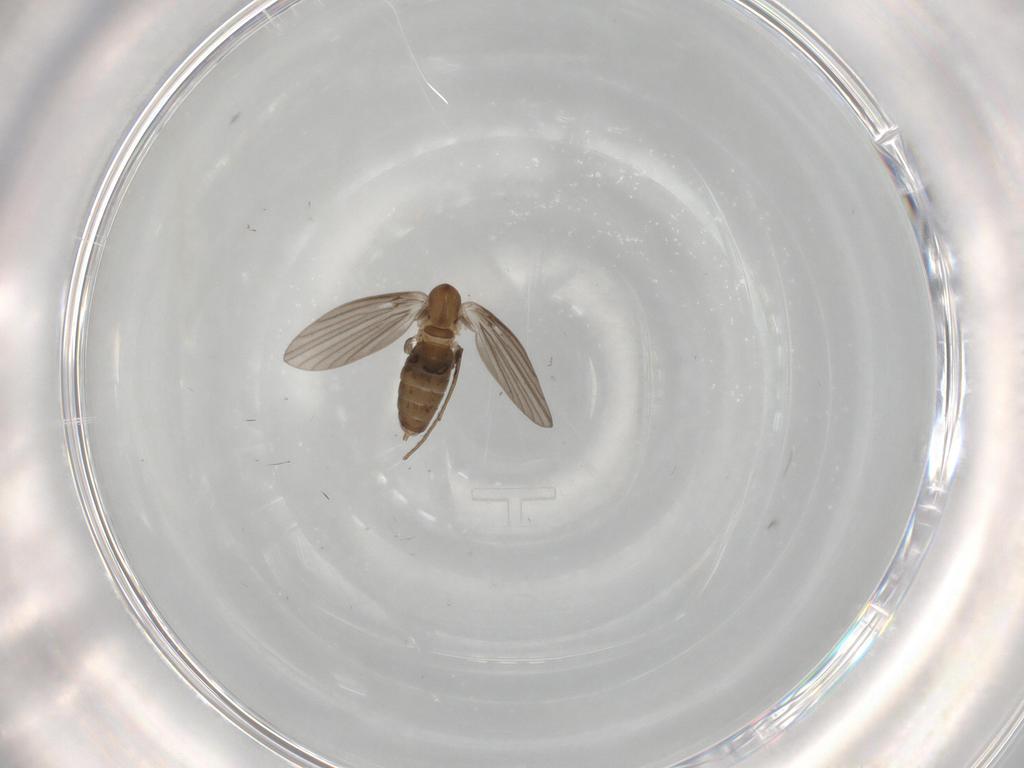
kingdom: Animalia
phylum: Arthropoda
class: Insecta
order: Diptera
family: Psychodidae
